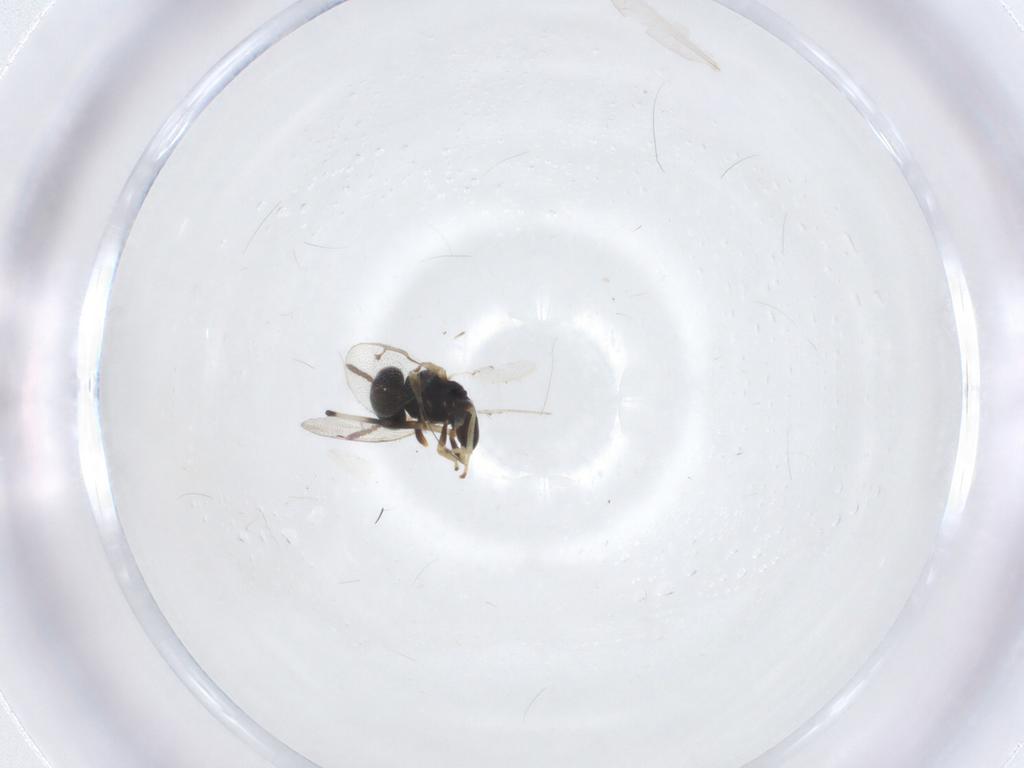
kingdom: Animalia
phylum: Arthropoda
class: Insecta
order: Hymenoptera
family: Pteromalidae
